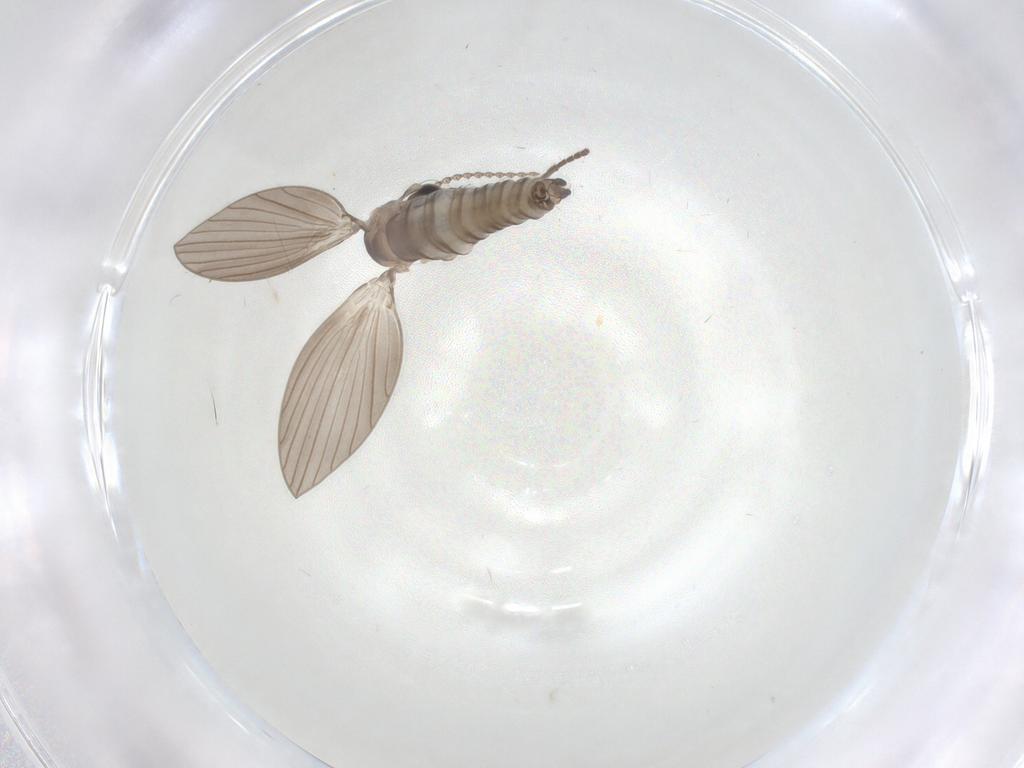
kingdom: Animalia
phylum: Arthropoda
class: Insecta
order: Diptera
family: Psychodidae
